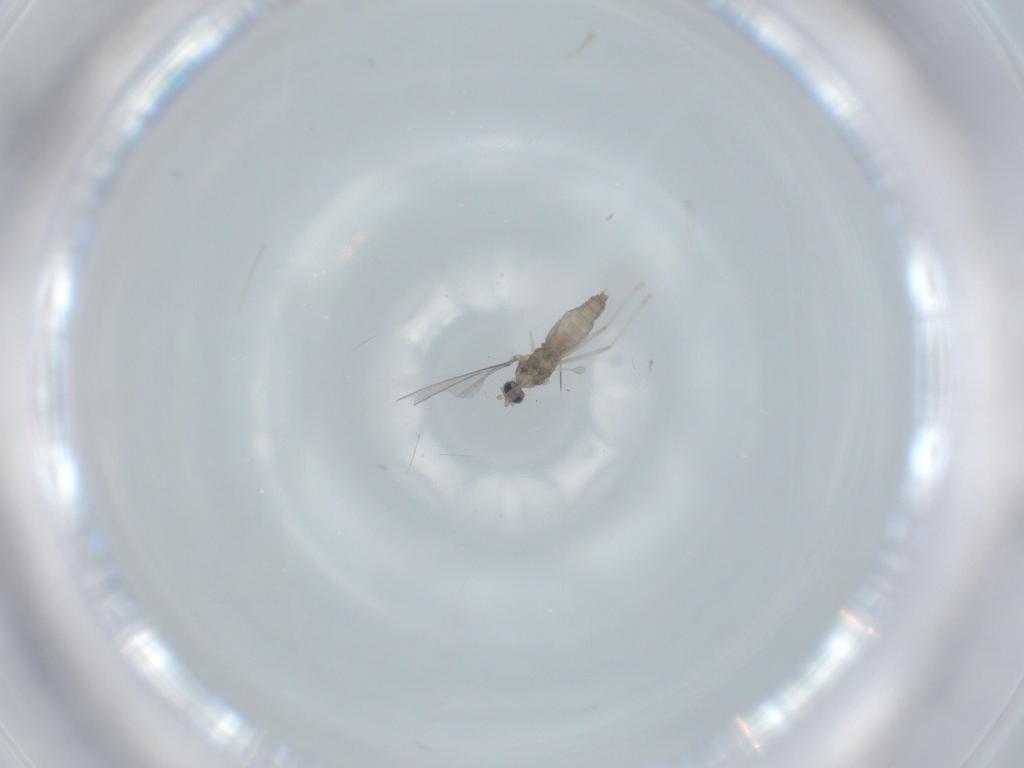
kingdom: Animalia
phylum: Arthropoda
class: Insecta
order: Diptera
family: Cecidomyiidae
